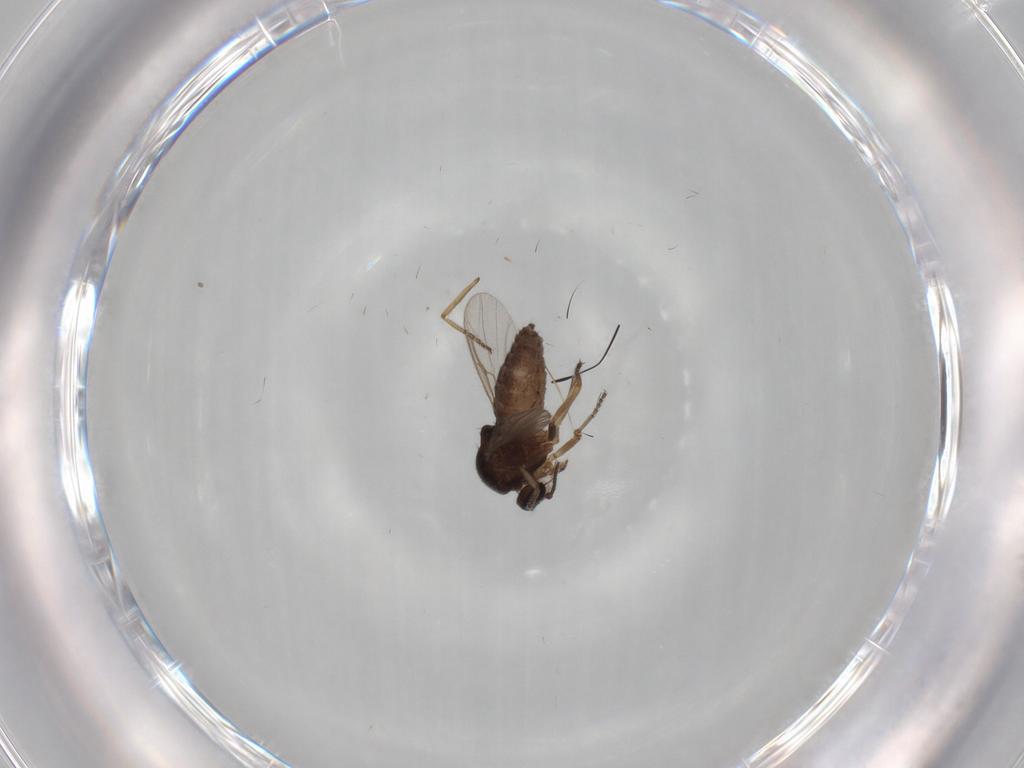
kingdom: Animalia
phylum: Arthropoda
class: Insecta
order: Diptera
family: Ceratopogonidae
